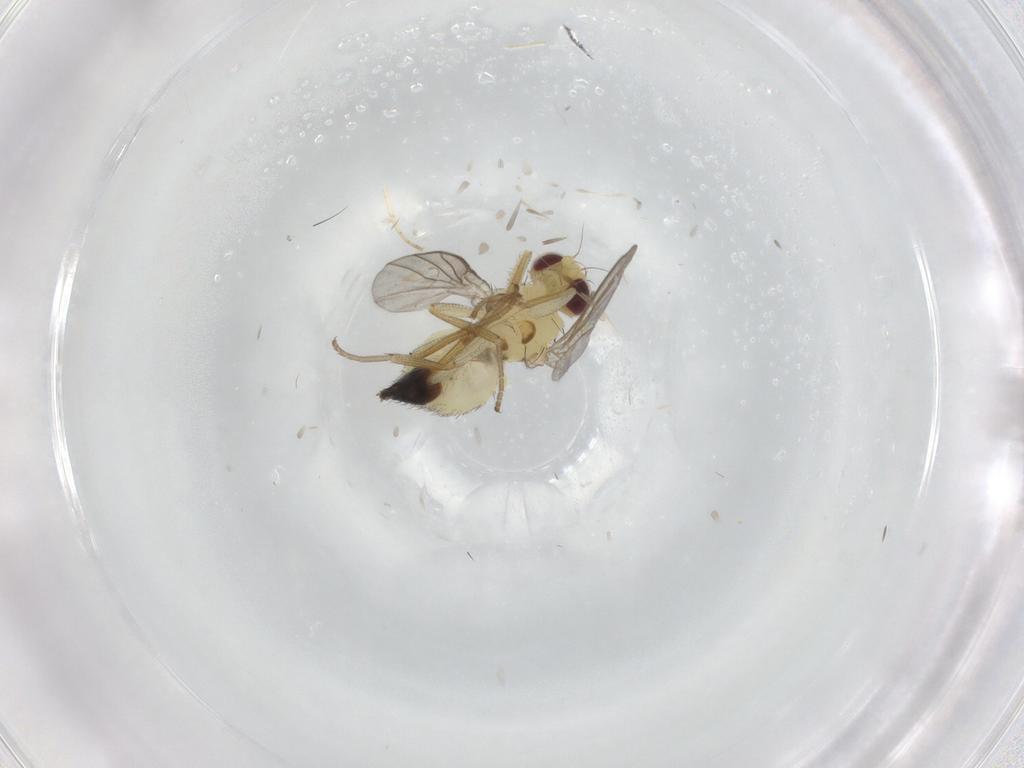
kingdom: Animalia
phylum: Arthropoda
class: Insecta
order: Diptera
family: Agromyzidae
